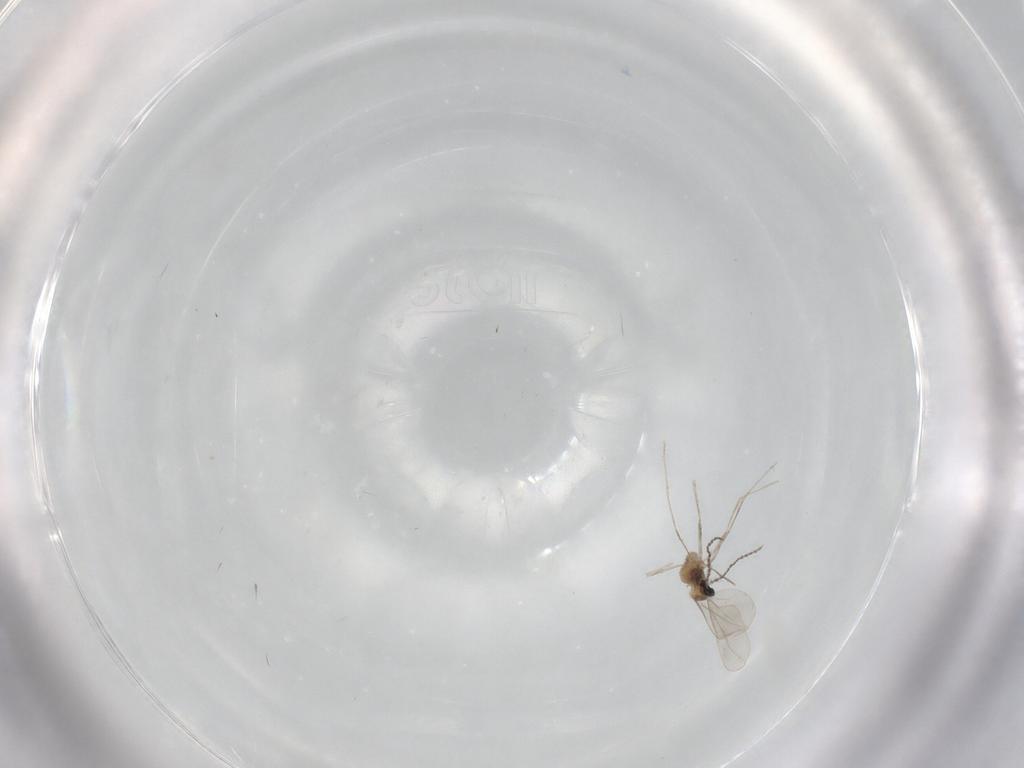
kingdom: Animalia
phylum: Arthropoda
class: Insecta
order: Diptera
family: Phoridae
